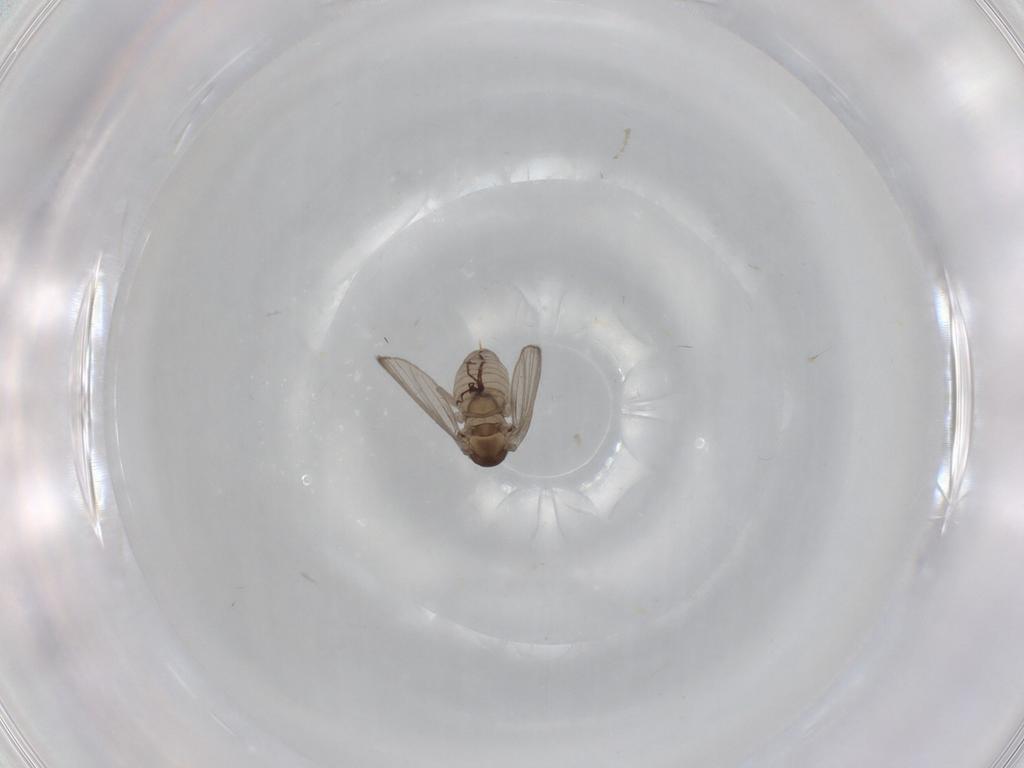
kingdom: Animalia
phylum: Arthropoda
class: Insecta
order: Diptera
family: Psychodidae
